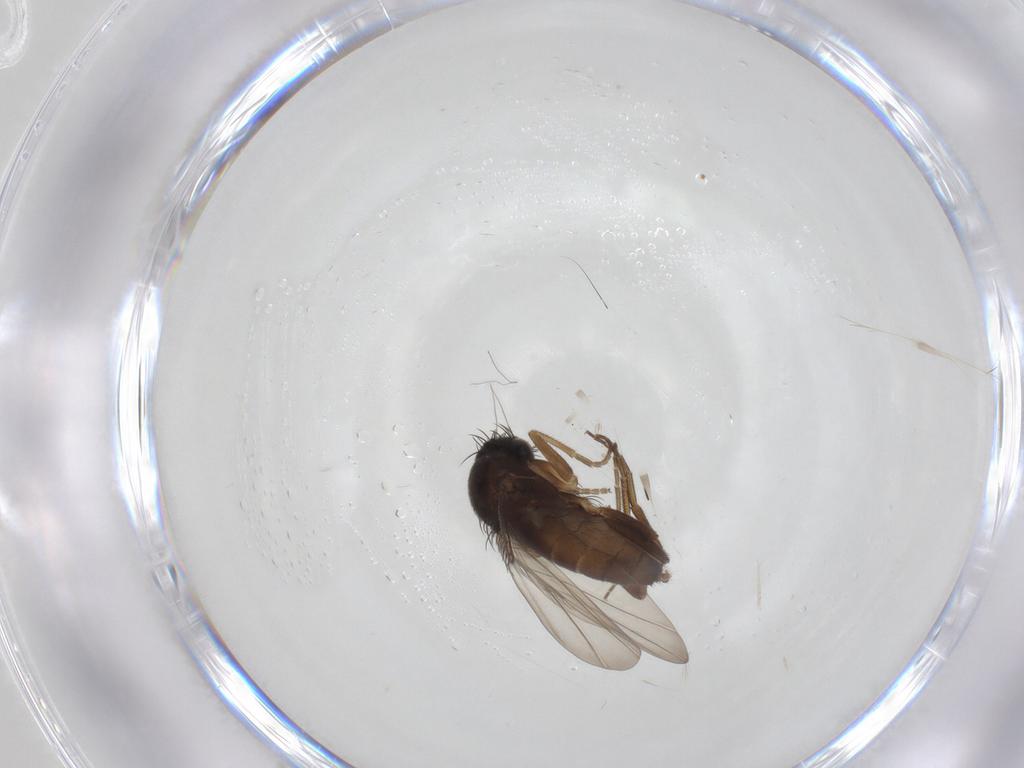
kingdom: Animalia
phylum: Arthropoda
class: Insecta
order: Diptera
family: Phoridae
